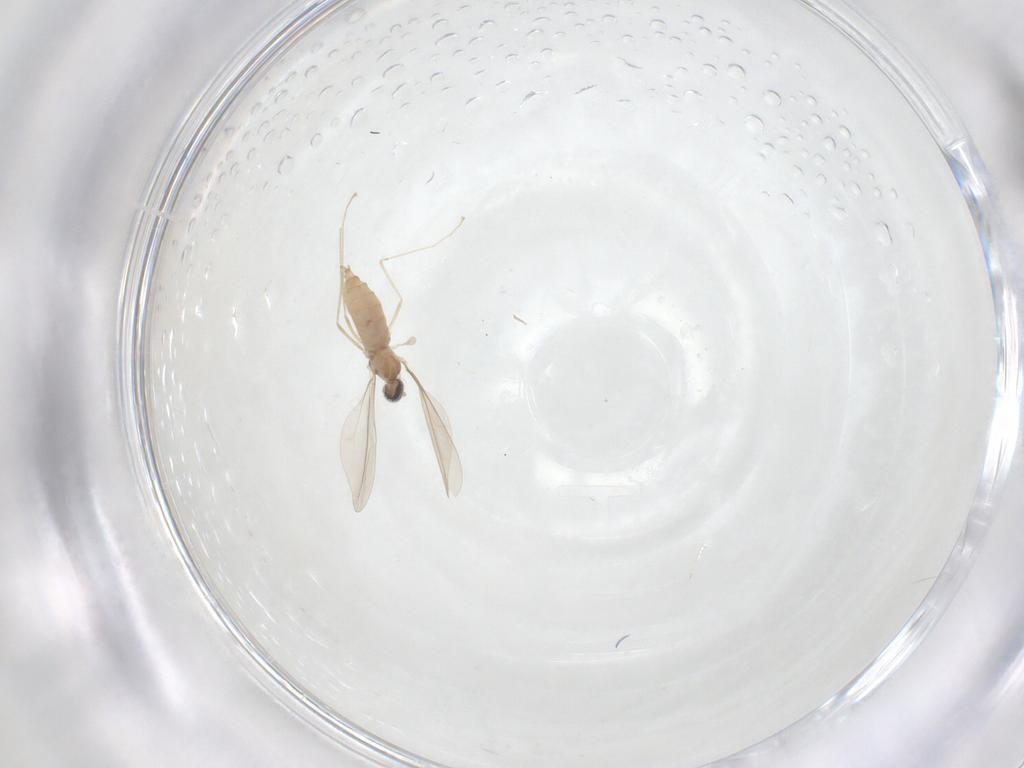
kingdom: Animalia
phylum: Arthropoda
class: Insecta
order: Diptera
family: Cecidomyiidae
